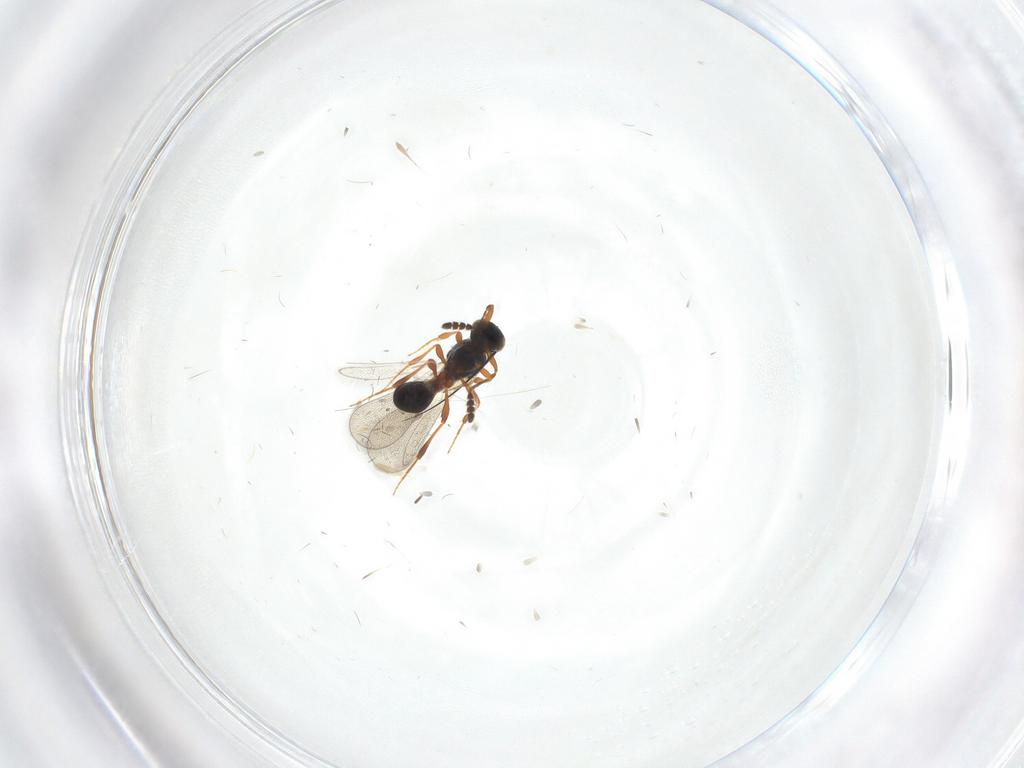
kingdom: Animalia
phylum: Arthropoda
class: Insecta
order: Hymenoptera
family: Platygastridae
